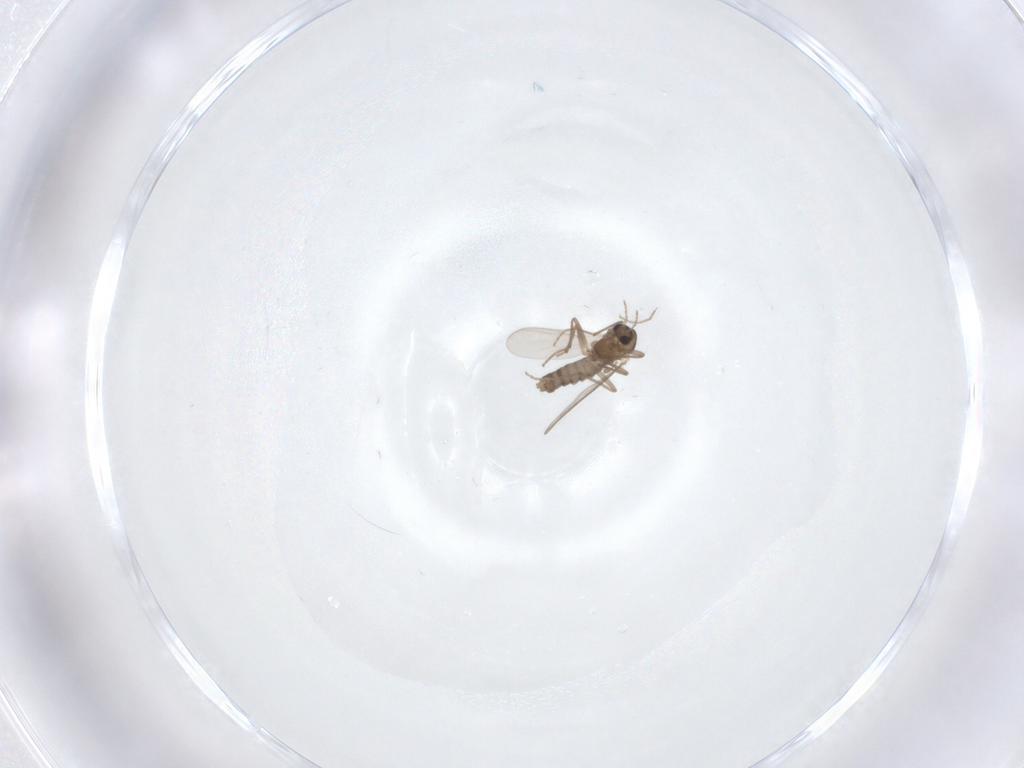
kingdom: Animalia
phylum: Arthropoda
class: Insecta
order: Diptera
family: Chironomidae
